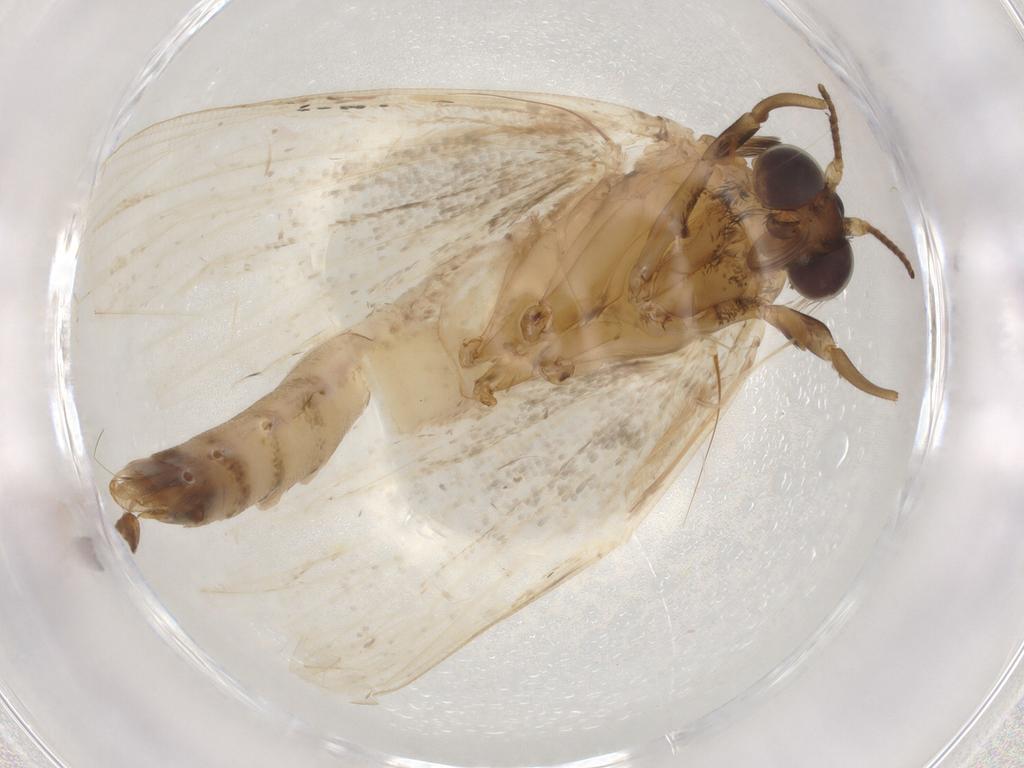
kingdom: Animalia
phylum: Arthropoda
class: Insecta
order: Lepidoptera
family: Erebidae
